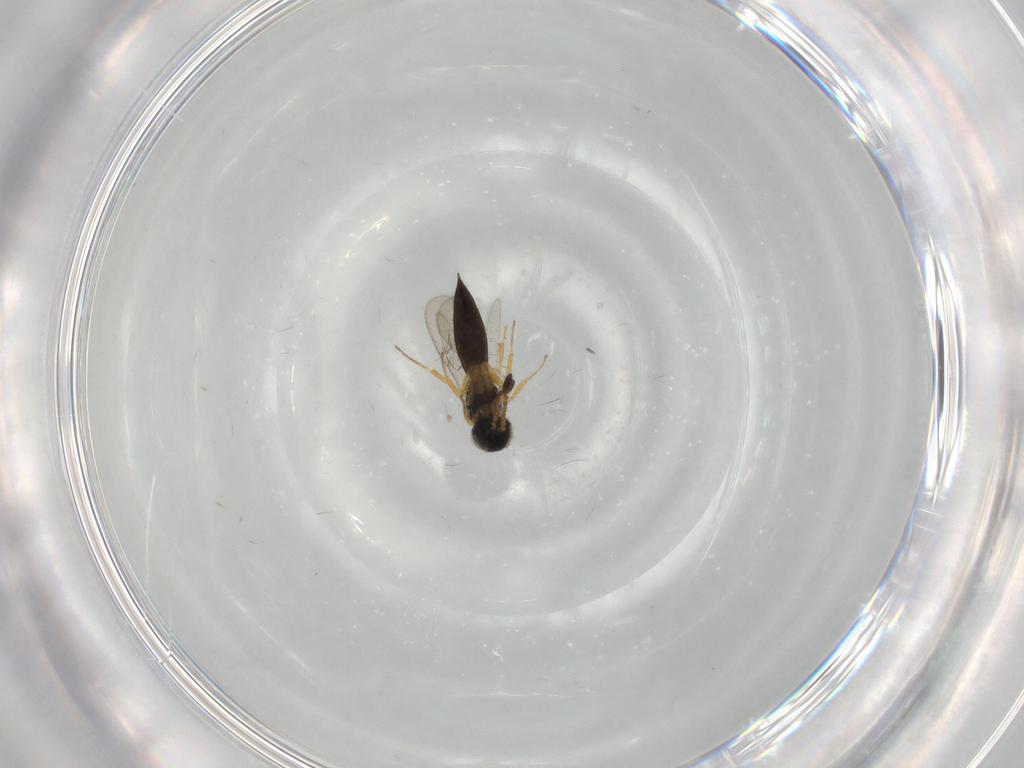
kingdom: Animalia
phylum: Arthropoda
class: Insecta
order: Hymenoptera
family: Scelionidae
